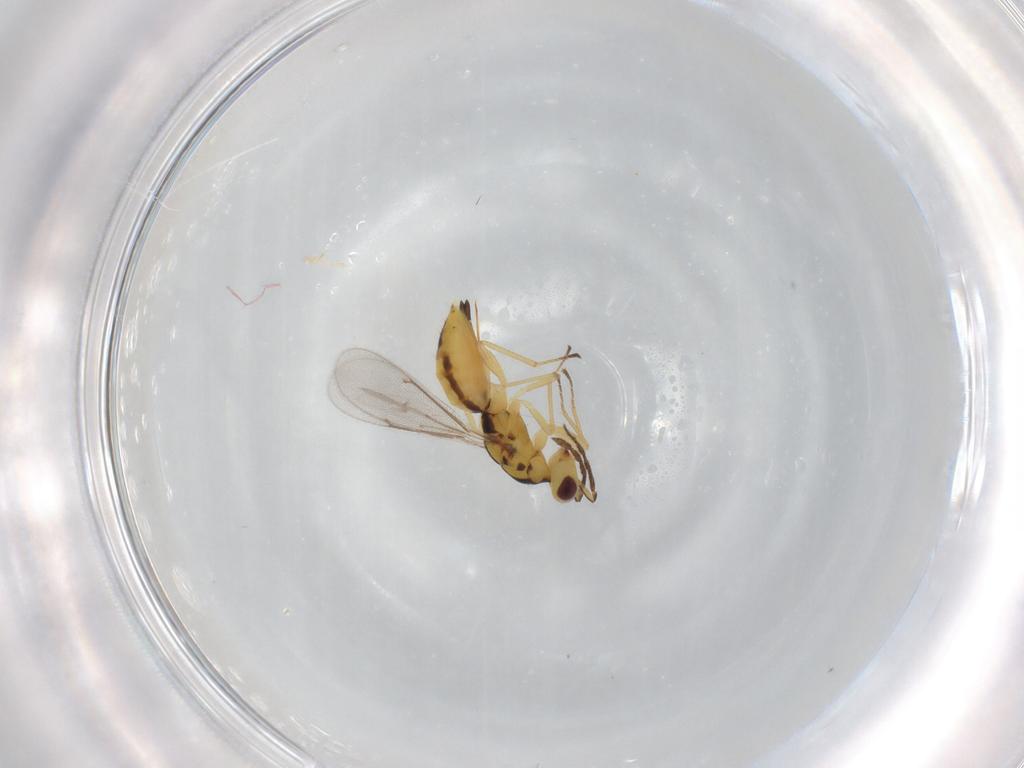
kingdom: Animalia
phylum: Arthropoda
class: Insecta
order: Hymenoptera
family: Eulophidae
